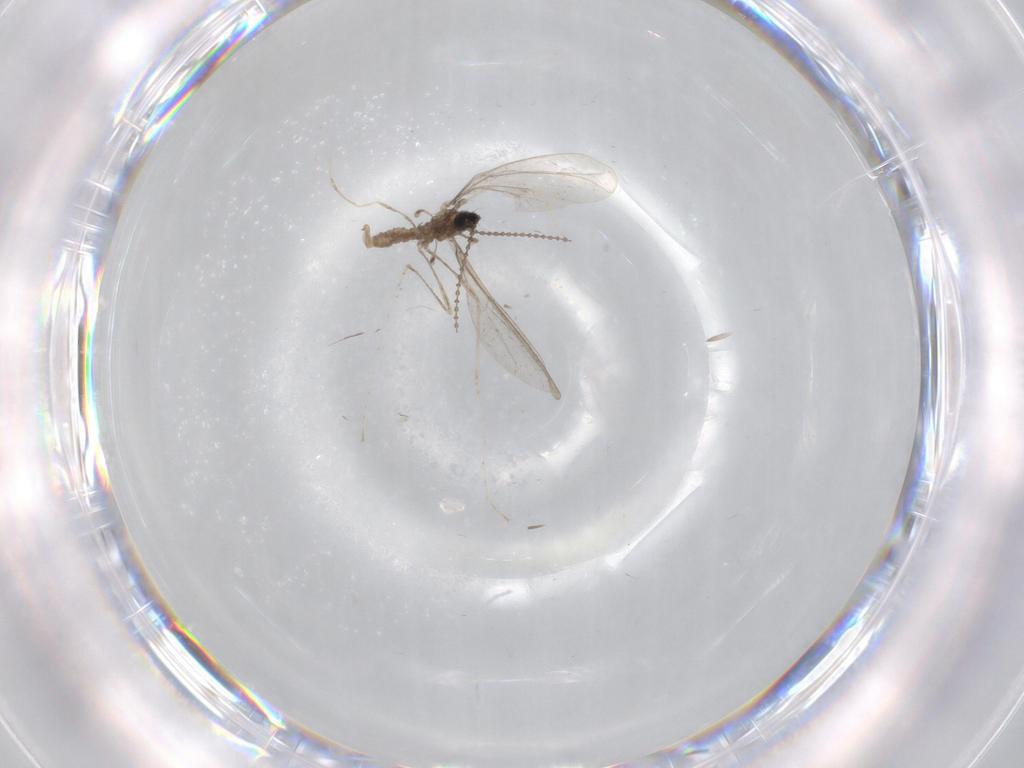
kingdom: Animalia
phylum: Arthropoda
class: Insecta
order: Diptera
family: Cecidomyiidae
